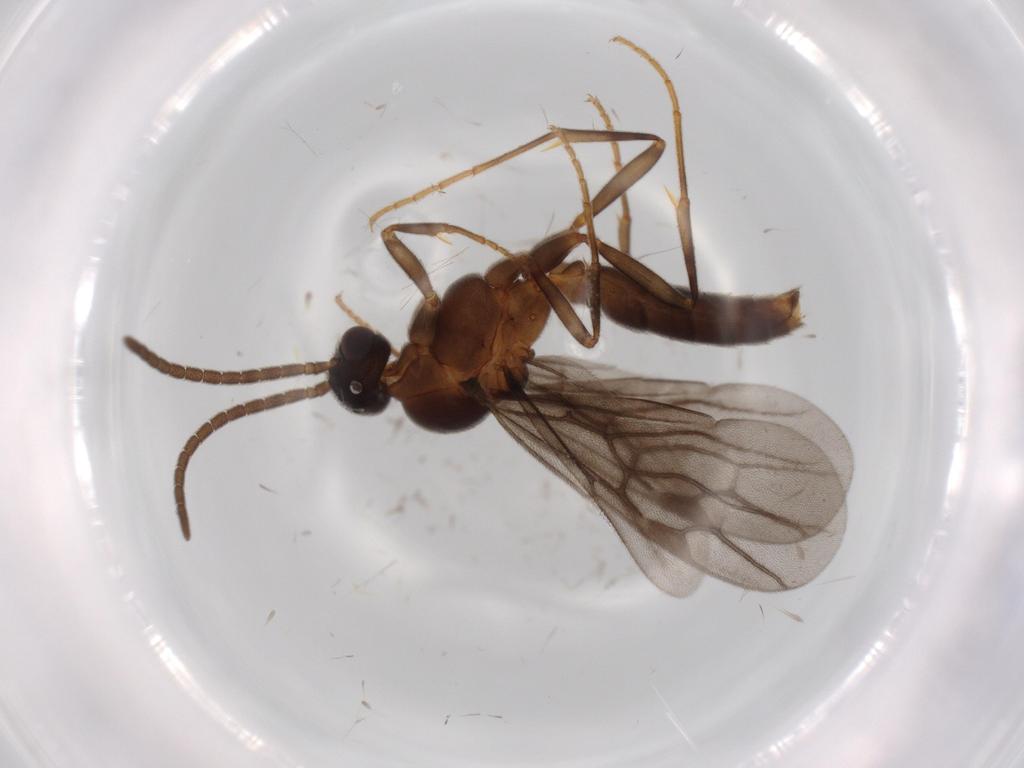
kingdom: Animalia
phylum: Arthropoda
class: Insecta
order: Hymenoptera
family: Formicidae
